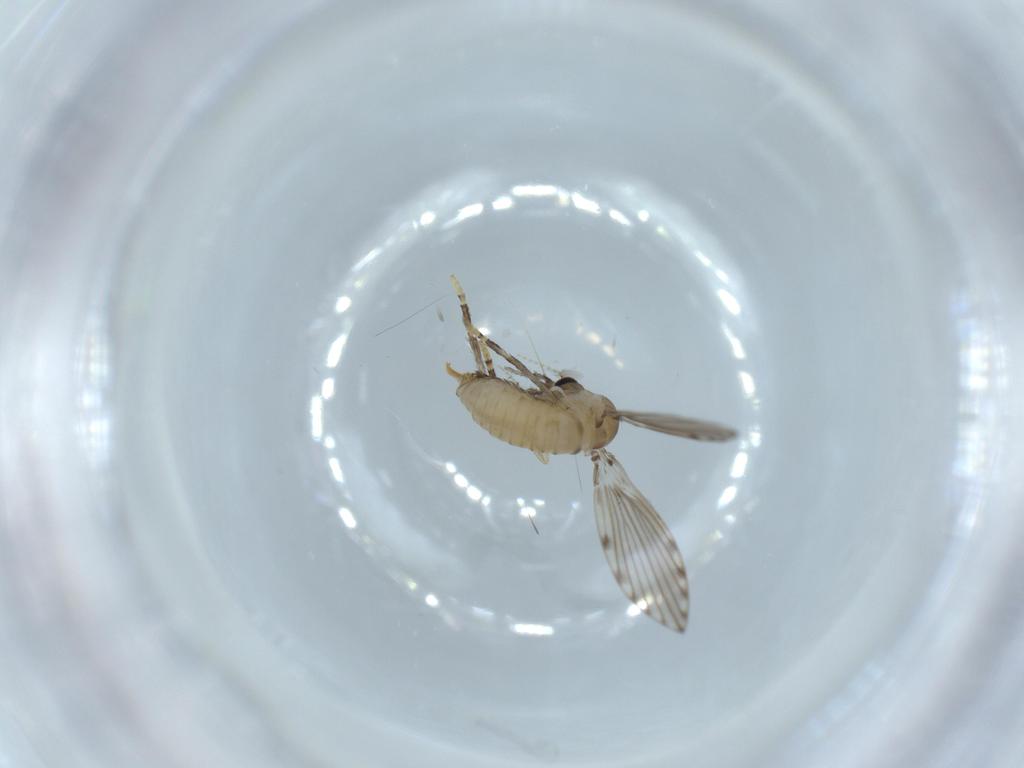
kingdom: Animalia
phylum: Arthropoda
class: Insecta
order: Diptera
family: Psychodidae
